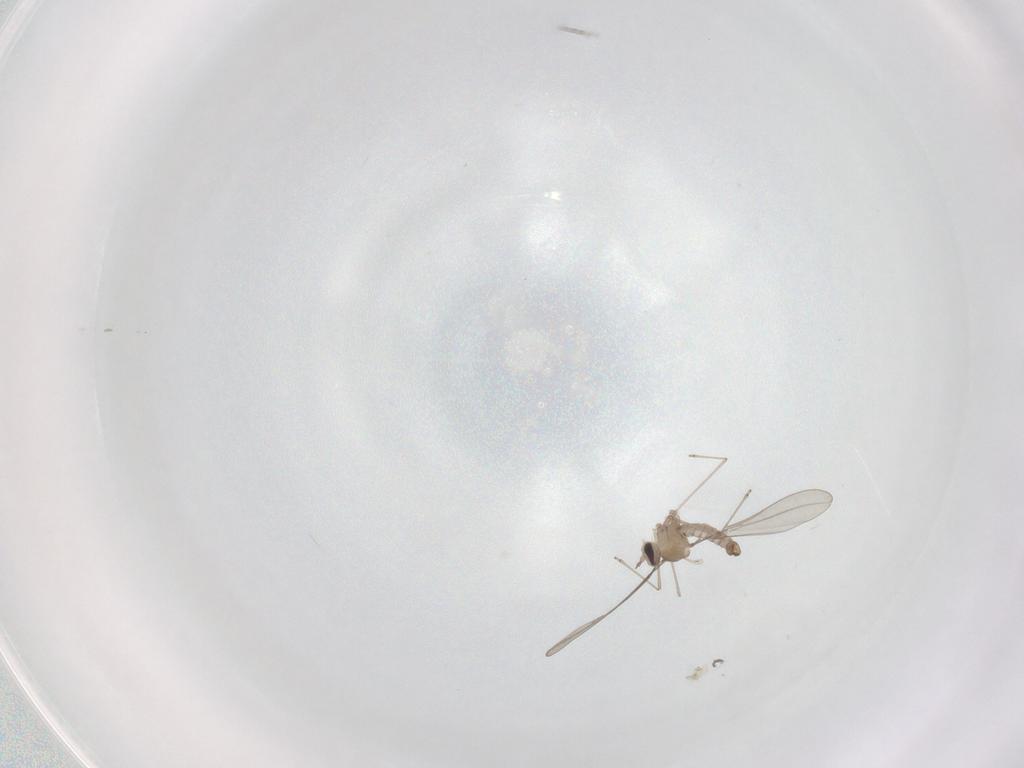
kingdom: Animalia
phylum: Arthropoda
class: Insecta
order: Diptera
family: Cecidomyiidae
